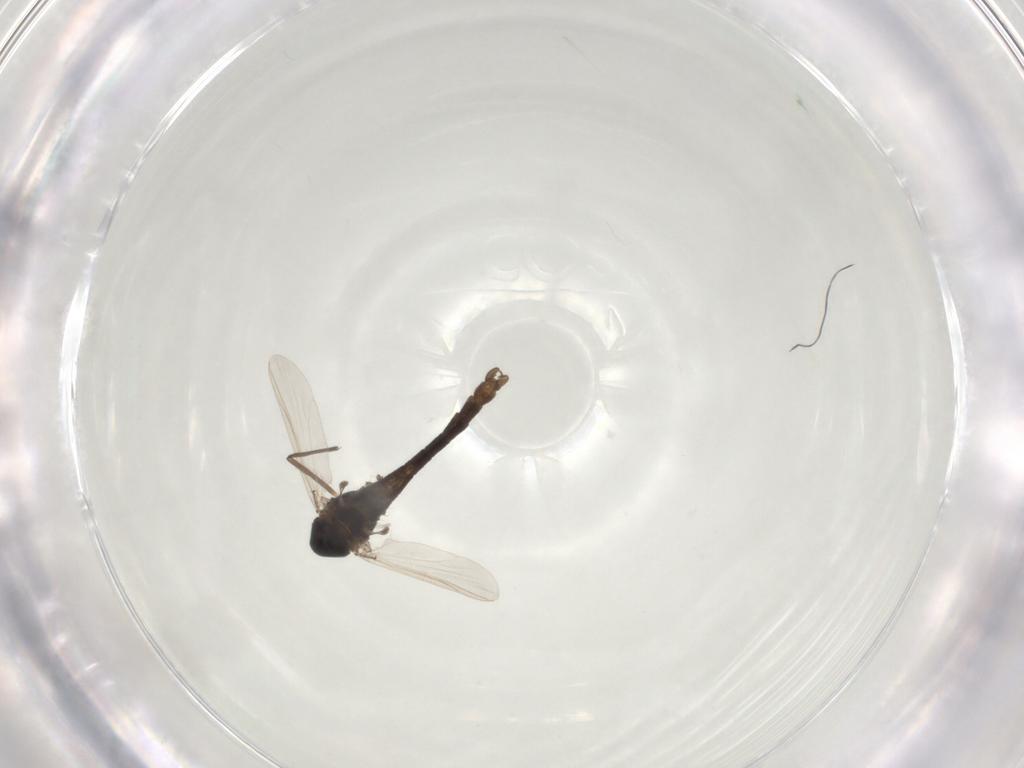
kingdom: Animalia
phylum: Arthropoda
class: Insecta
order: Diptera
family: Chironomidae
